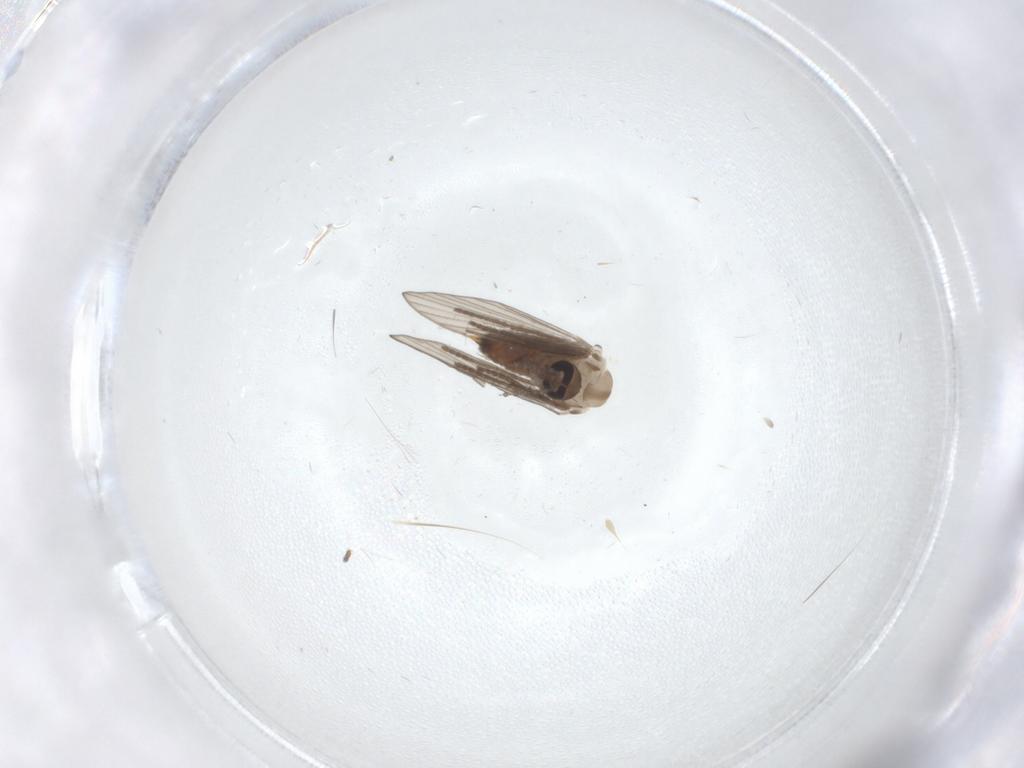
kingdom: Animalia
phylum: Arthropoda
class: Insecta
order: Diptera
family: Psychodidae
